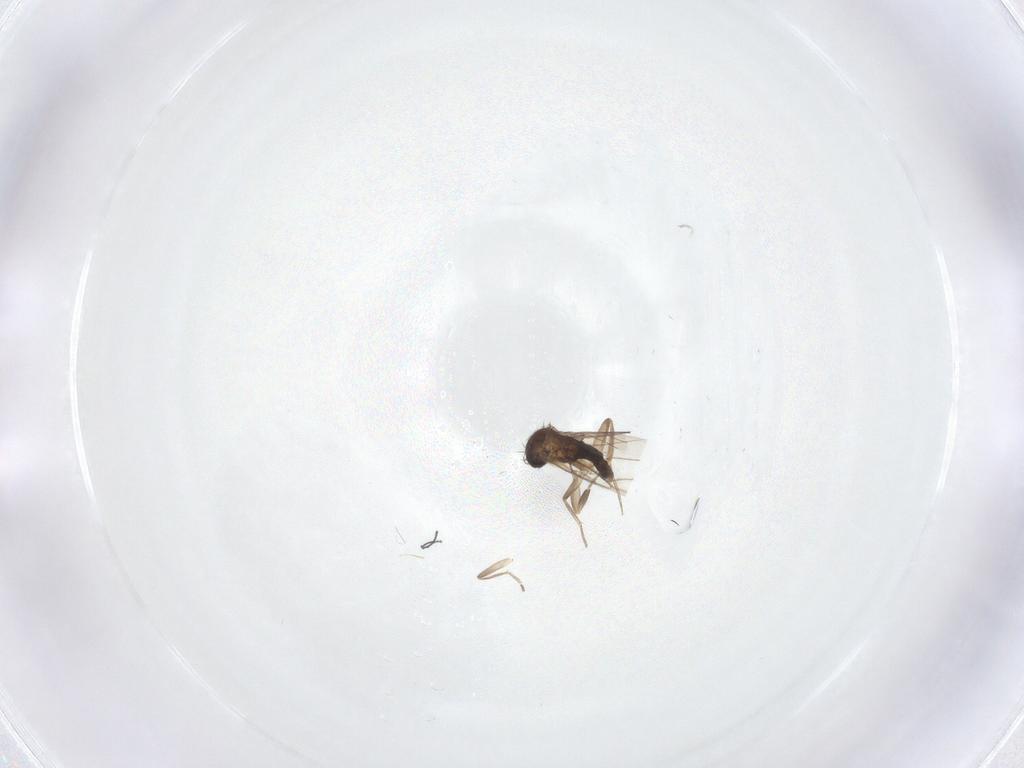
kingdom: Animalia
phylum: Arthropoda
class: Insecta
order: Diptera
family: Phoridae
